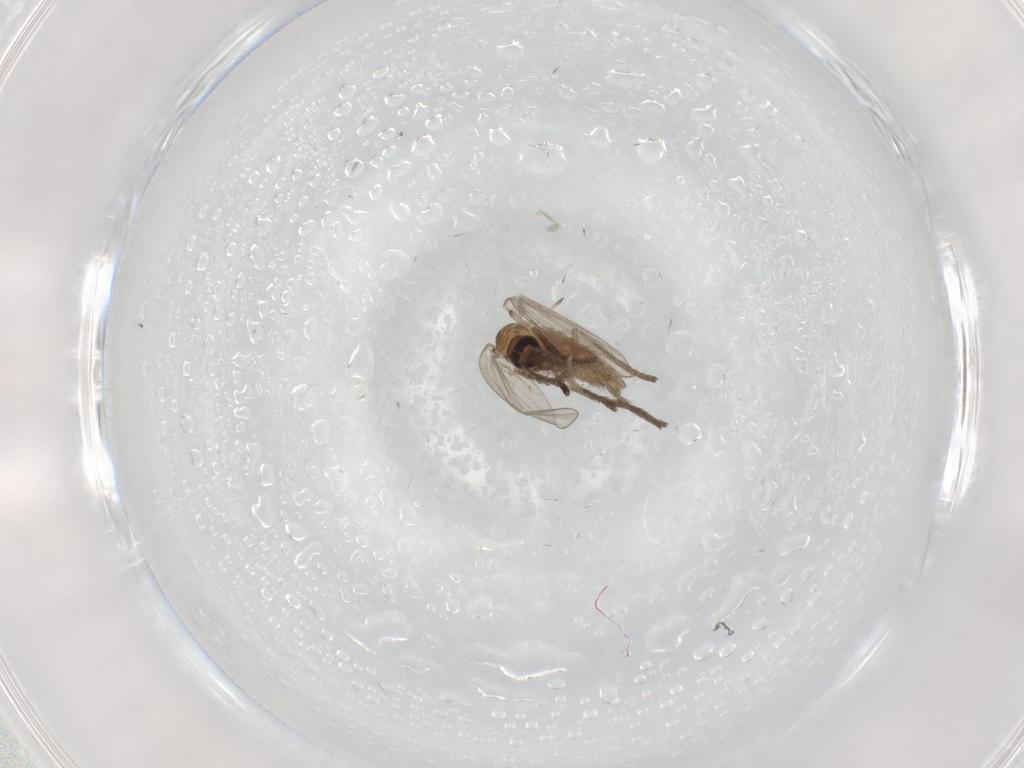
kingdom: Animalia
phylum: Arthropoda
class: Insecta
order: Diptera
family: Psychodidae
